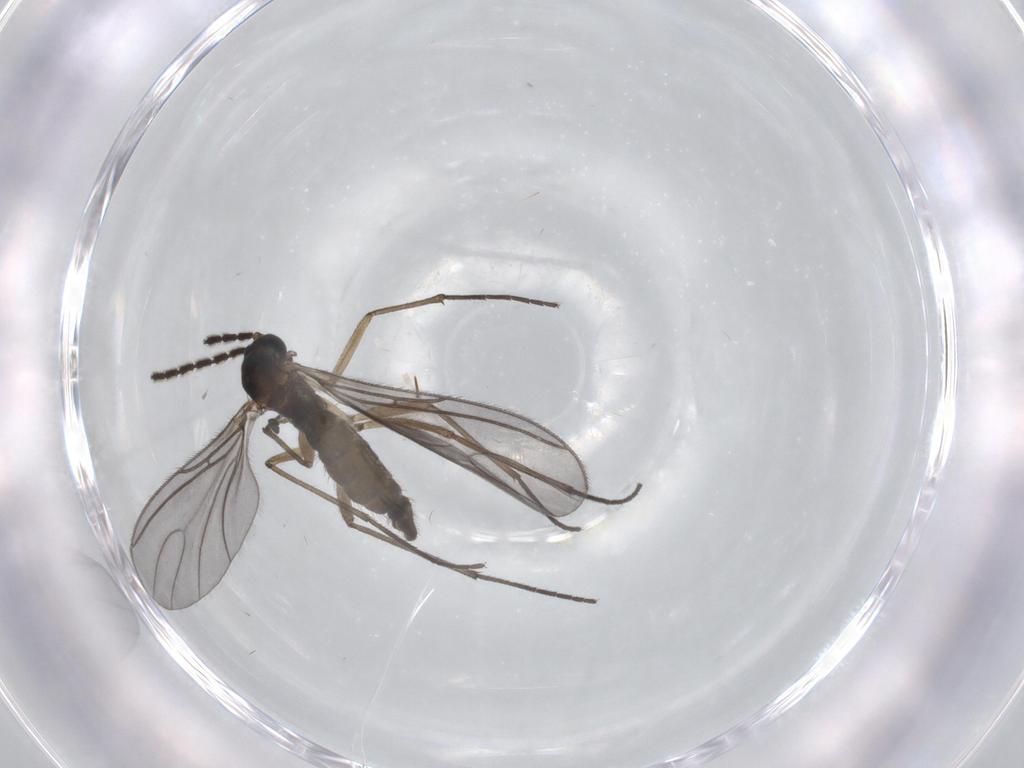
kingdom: Animalia
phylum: Arthropoda
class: Insecta
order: Diptera
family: Sciaridae
